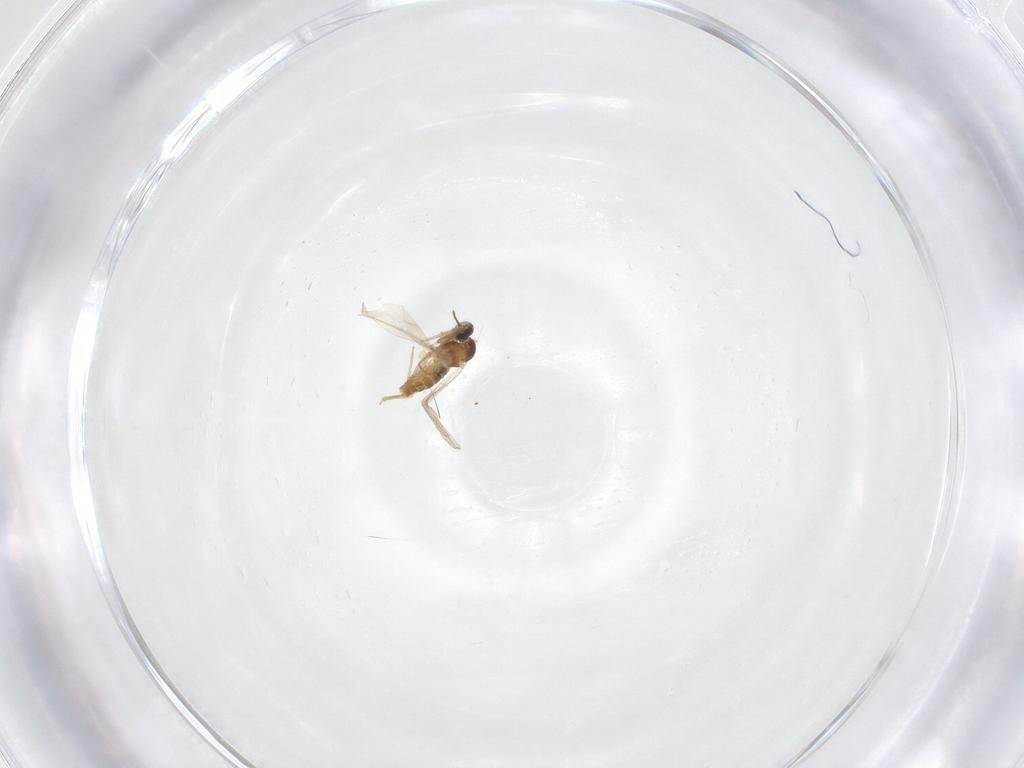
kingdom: Animalia
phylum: Arthropoda
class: Insecta
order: Diptera
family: Cecidomyiidae
